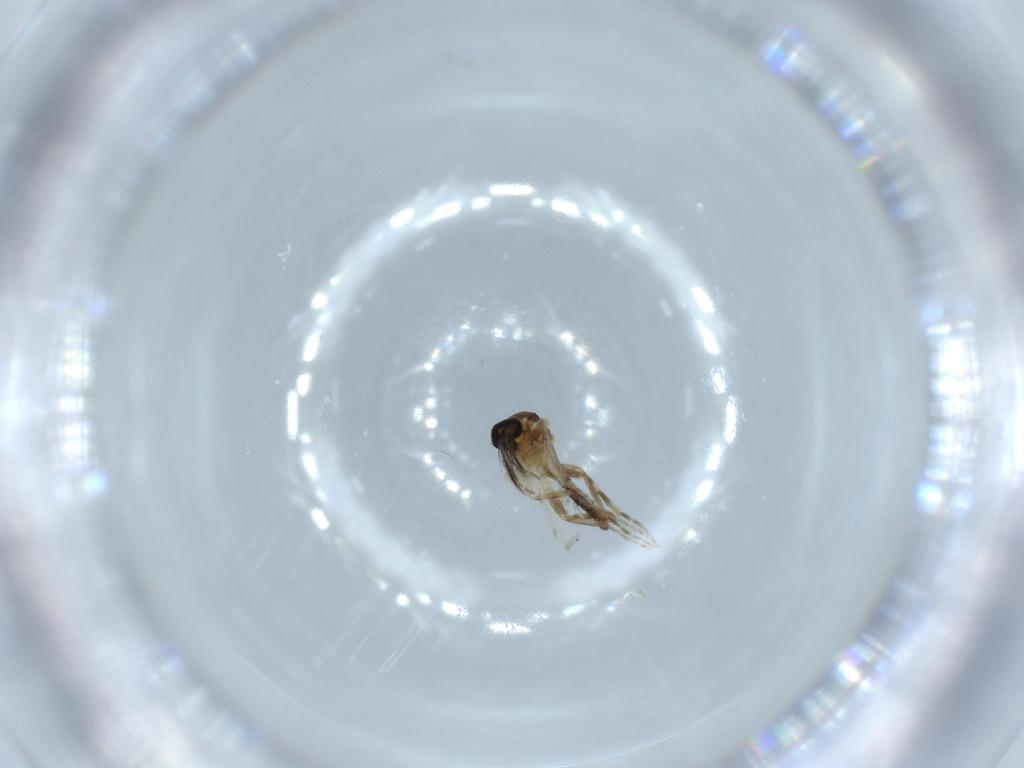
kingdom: Animalia
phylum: Arthropoda
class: Insecta
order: Diptera
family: Ceratopogonidae
